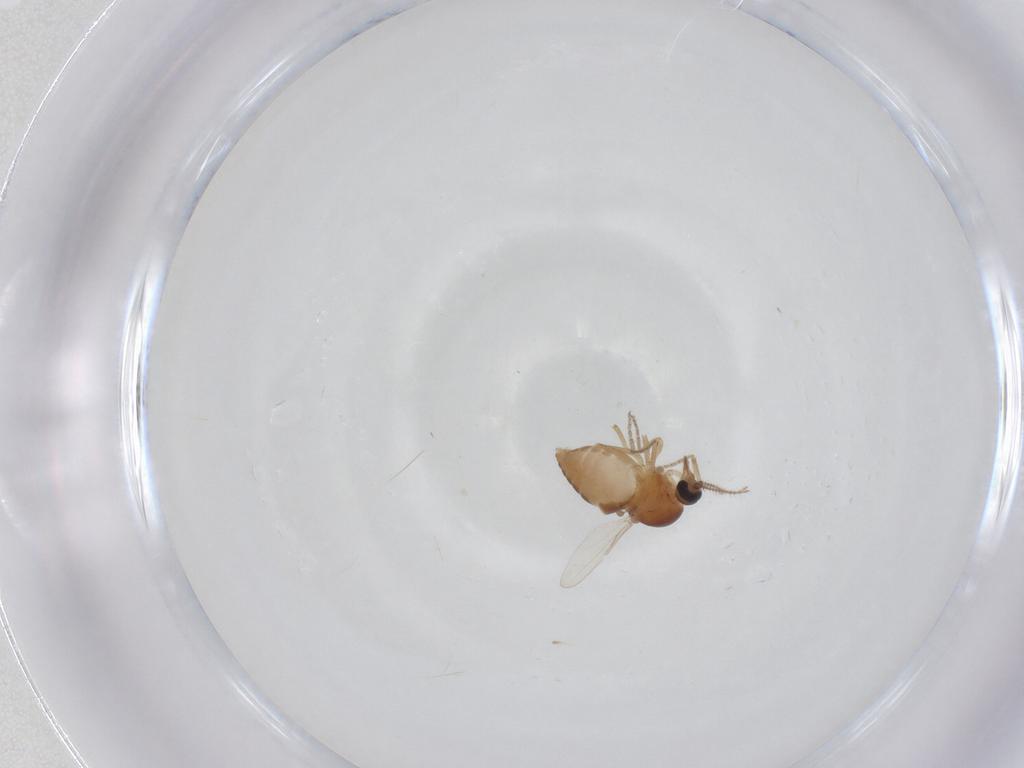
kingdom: Animalia
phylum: Arthropoda
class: Insecta
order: Diptera
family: Ceratopogonidae
